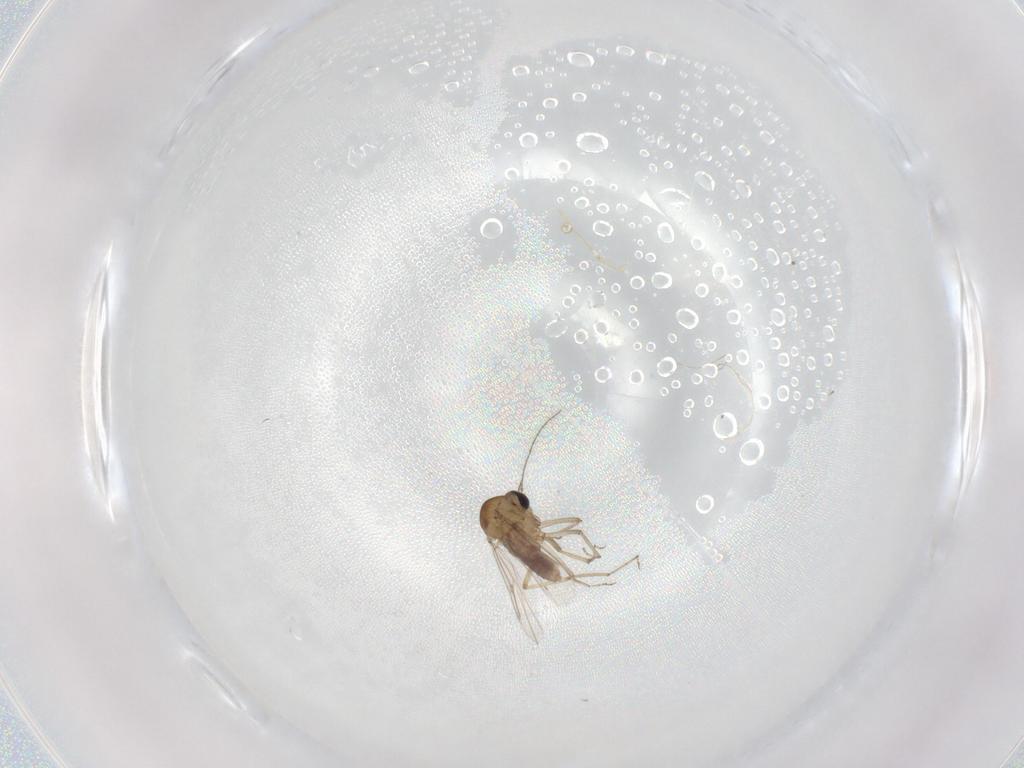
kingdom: Animalia
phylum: Arthropoda
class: Insecta
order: Diptera
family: Ceratopogonidae
